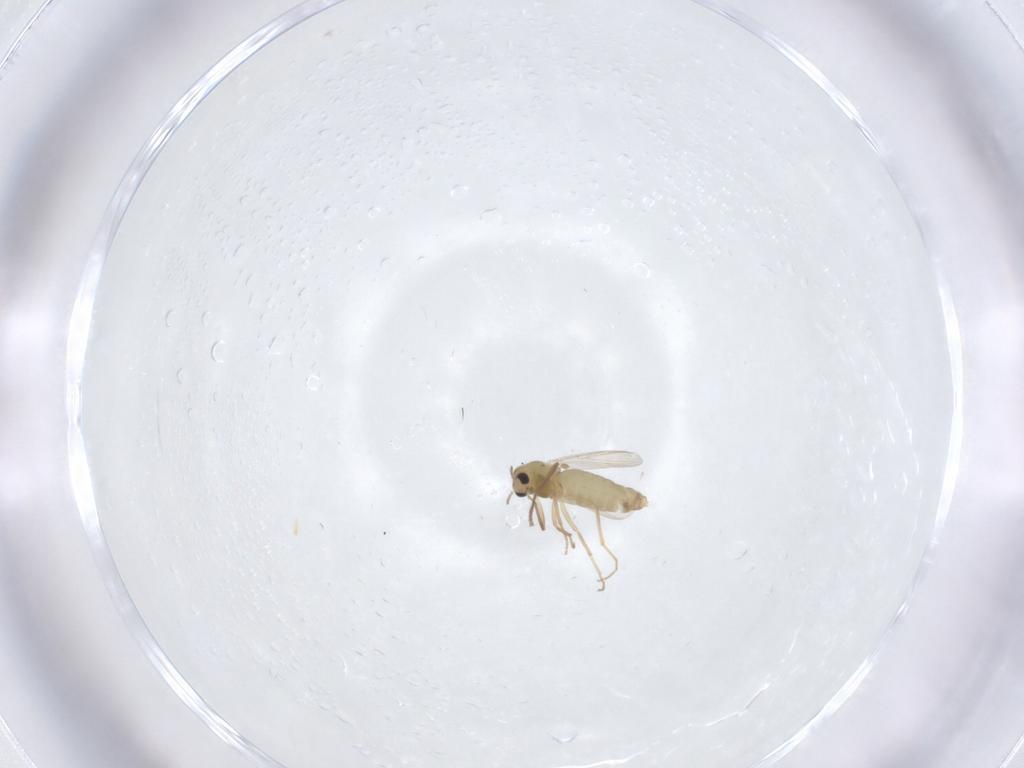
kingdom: Animalia
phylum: Arthropoda
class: Insecta
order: Diptera
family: Chironomidae
